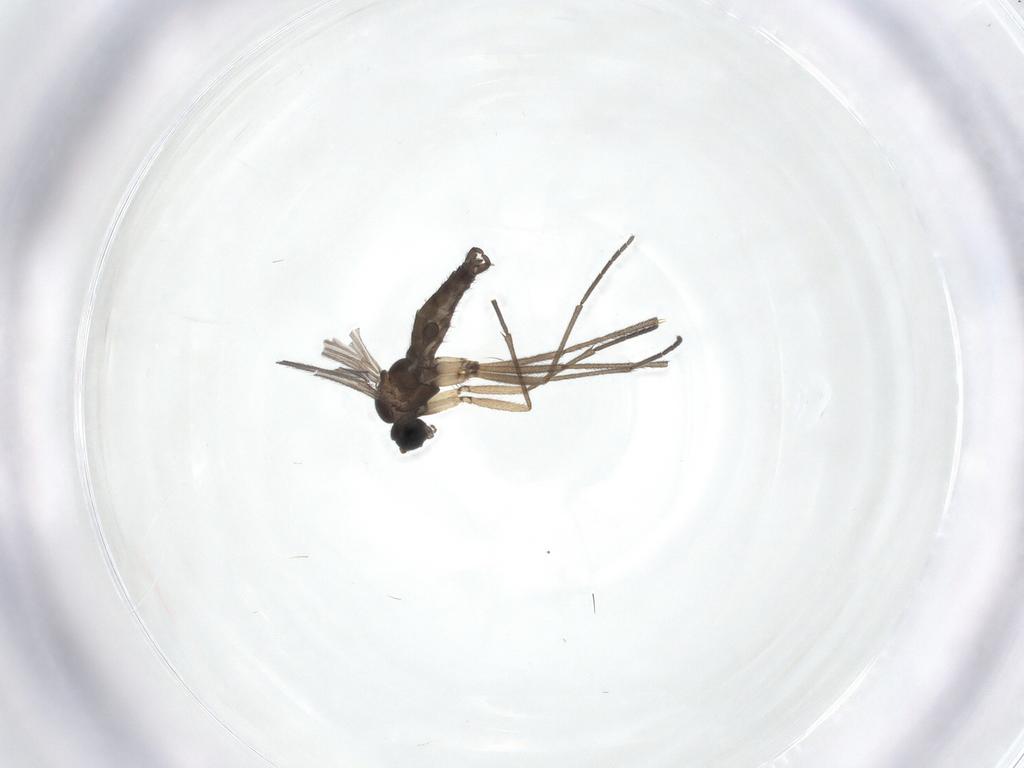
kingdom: Animalia
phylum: Arthropoda
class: Insecta
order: Diptera
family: Sciaridae
